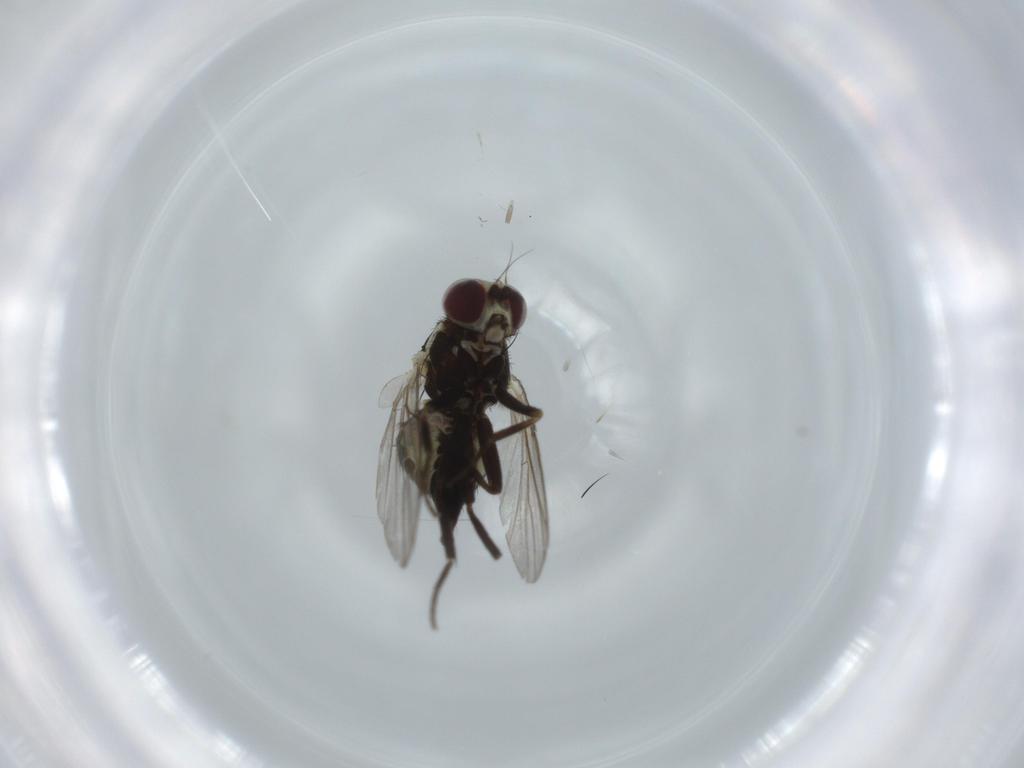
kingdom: Animalia
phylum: Arthropoda
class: Insecta
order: Diptera
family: Agromyzidae
